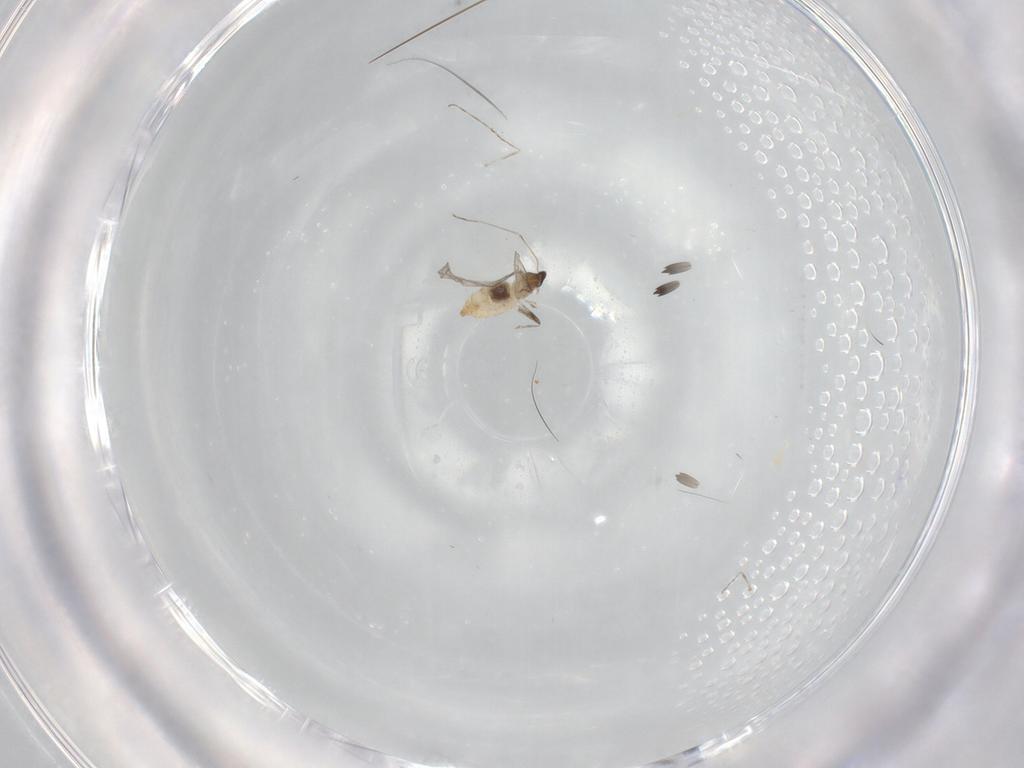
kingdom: Animalia
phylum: Arthropoda
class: Insecta
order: Diptera
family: Cecidomyiidae
